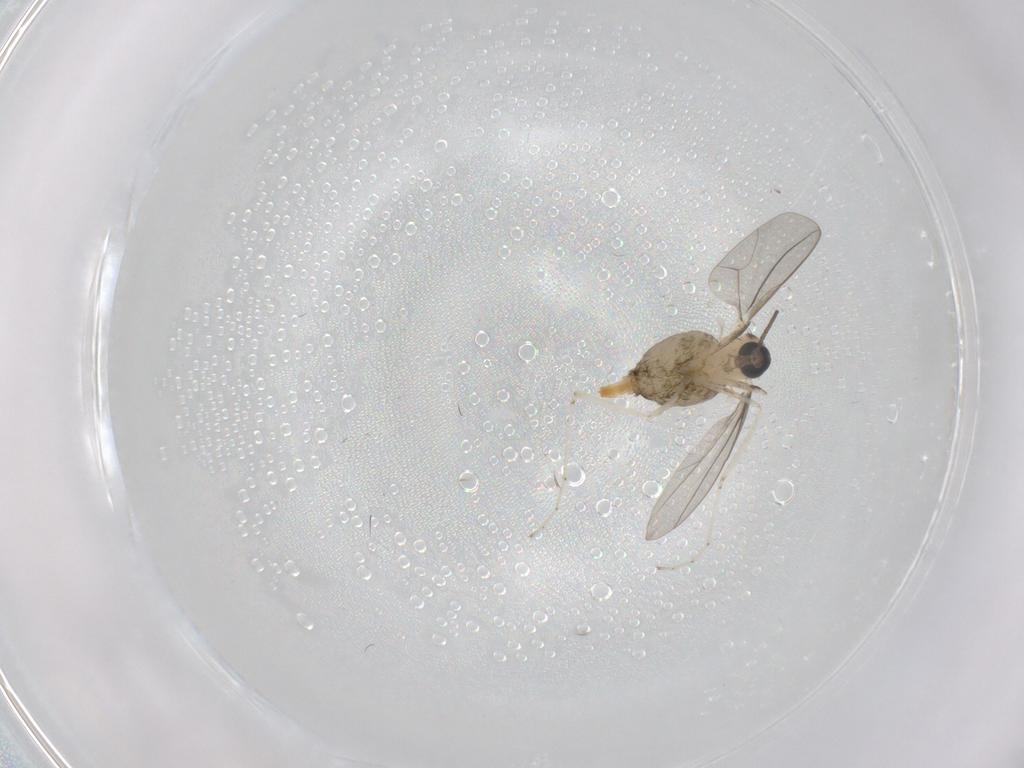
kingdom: Animalia
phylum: Arthropoda
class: Insecta
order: Diptera
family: Cecidomyiidae
